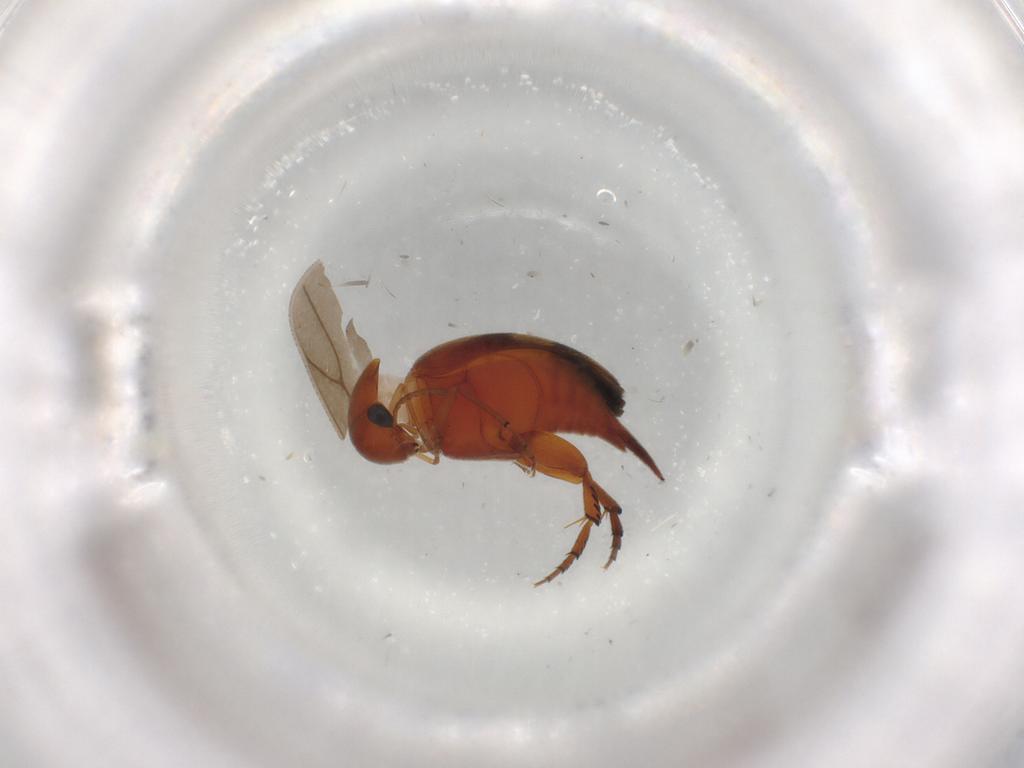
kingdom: Animalia
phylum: Arthropoda
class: Insecta
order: Coleoptera
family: Mordellidae
